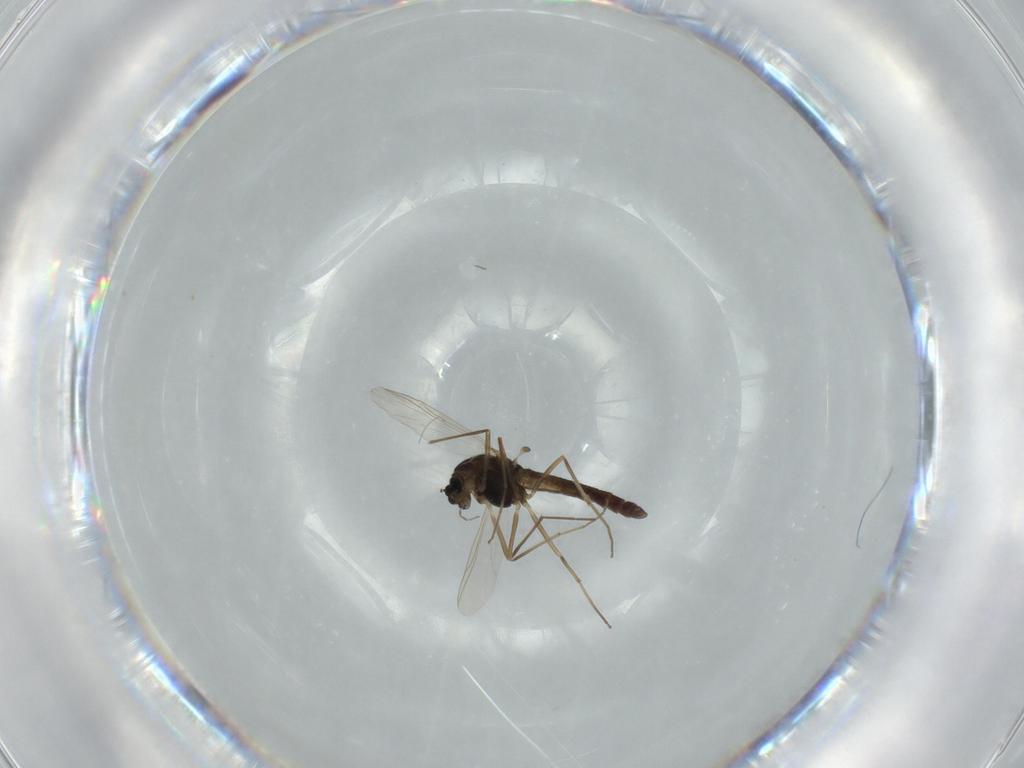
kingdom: Animalia
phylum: Arthropoda
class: Insecta
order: Diptera
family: Chironomidae
